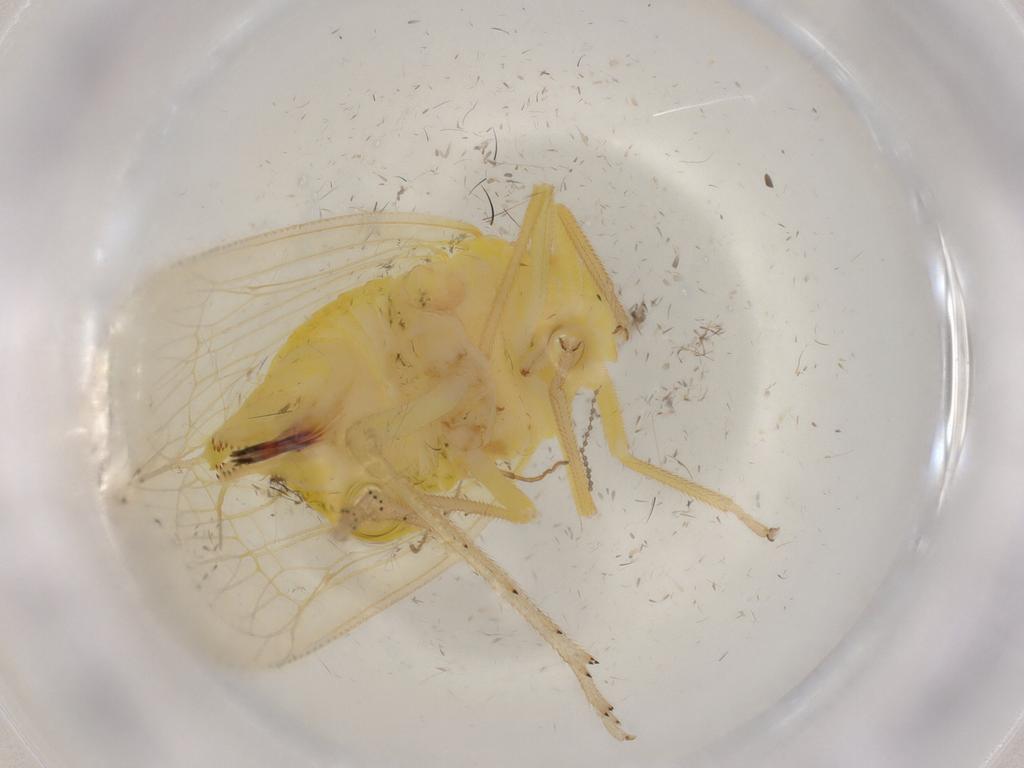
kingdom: Animalia
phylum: Arthropoda
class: Insecta
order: Hemiptera
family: Tropiduchidae
